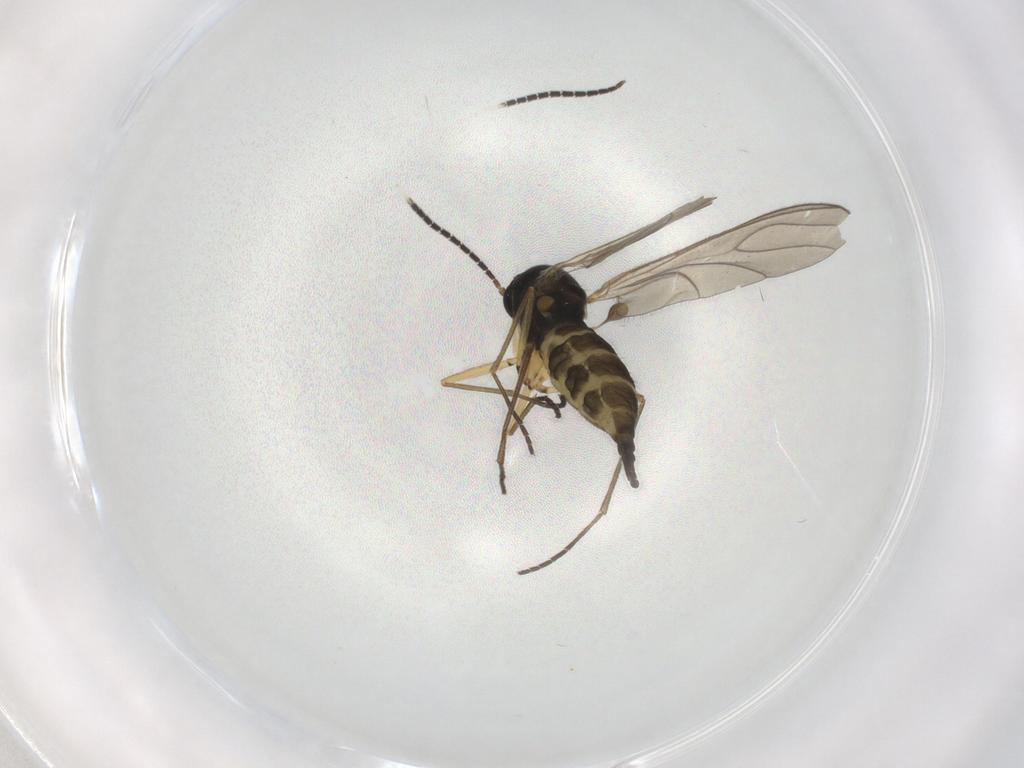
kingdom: Animalia
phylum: Arthropoda
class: Insecta
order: Diptera
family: Sciaridae
